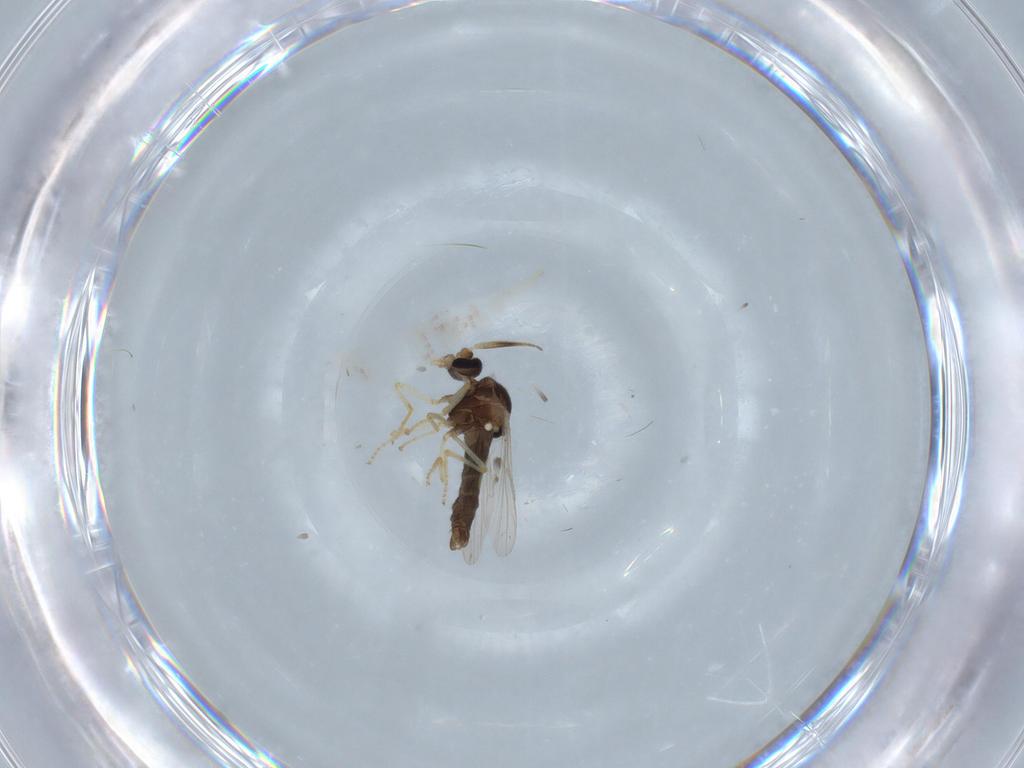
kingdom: Animalia
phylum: Arthropoda
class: Insecta
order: Diptera
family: Ceratopogonidae
